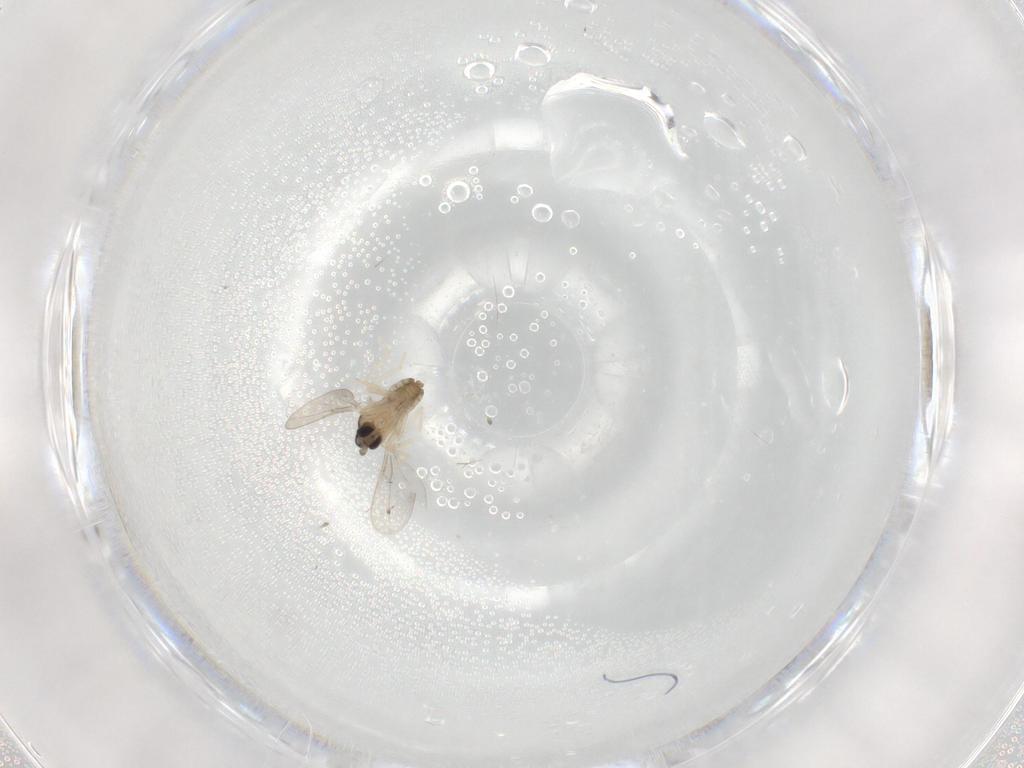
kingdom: Animalia
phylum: Arthropoda
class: Insecta
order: Diptera
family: Cecidomyiidae
